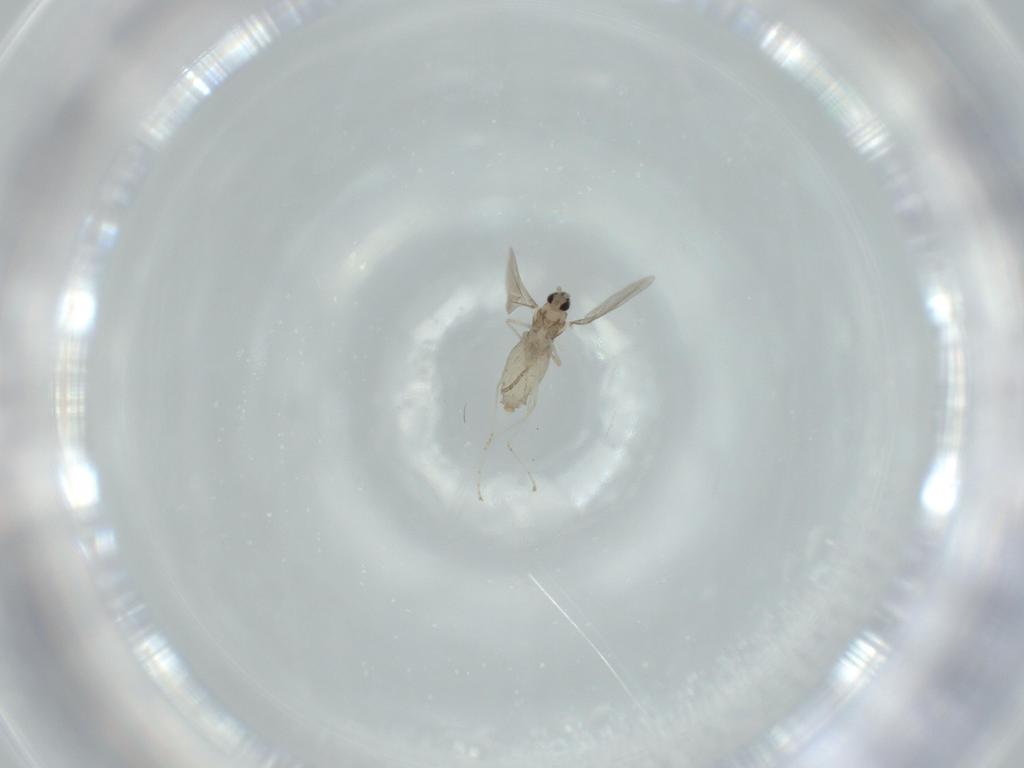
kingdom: Animalia
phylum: Arthropoda
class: Insecta
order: Diptera
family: Phoridae
